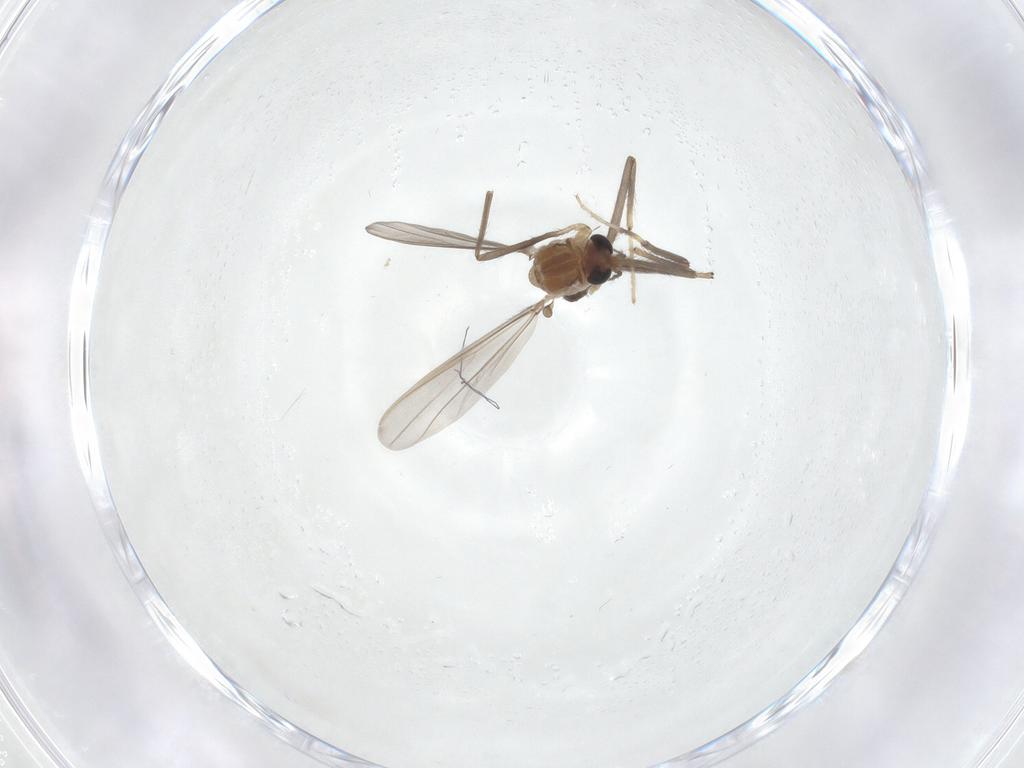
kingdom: Animalia
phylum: Arthropoda
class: Insecta
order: Diptera
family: Chironomidae
